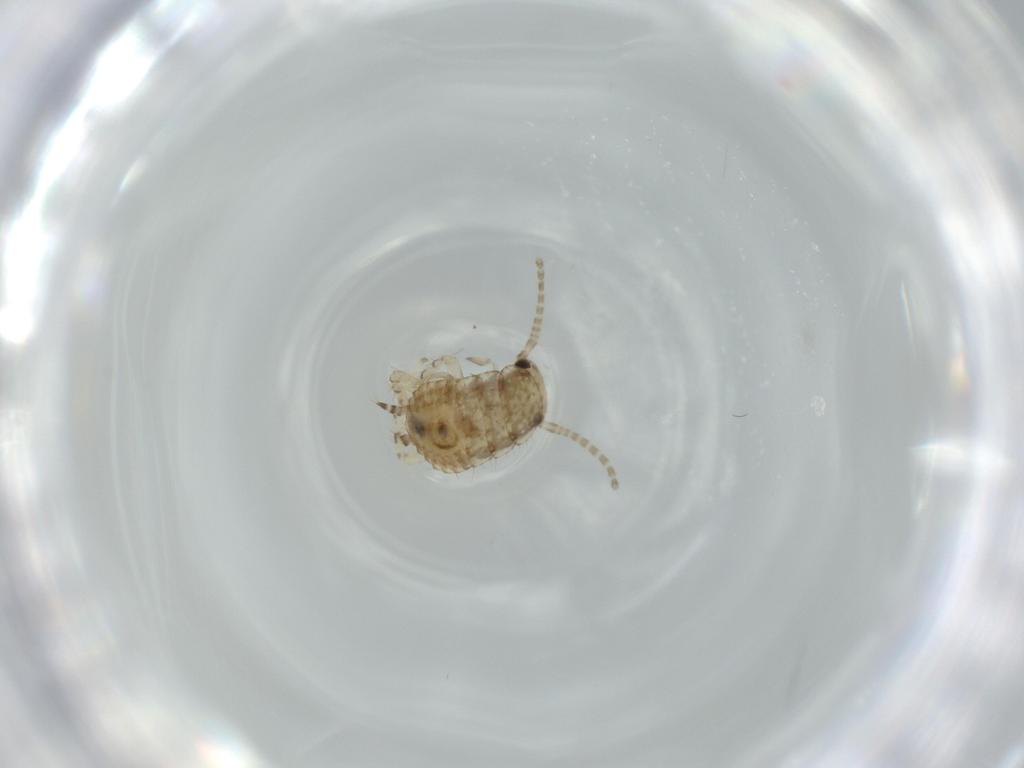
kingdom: Animalia
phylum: Arthropoda
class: Insecta
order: Blattodea
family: Ectobiidae
